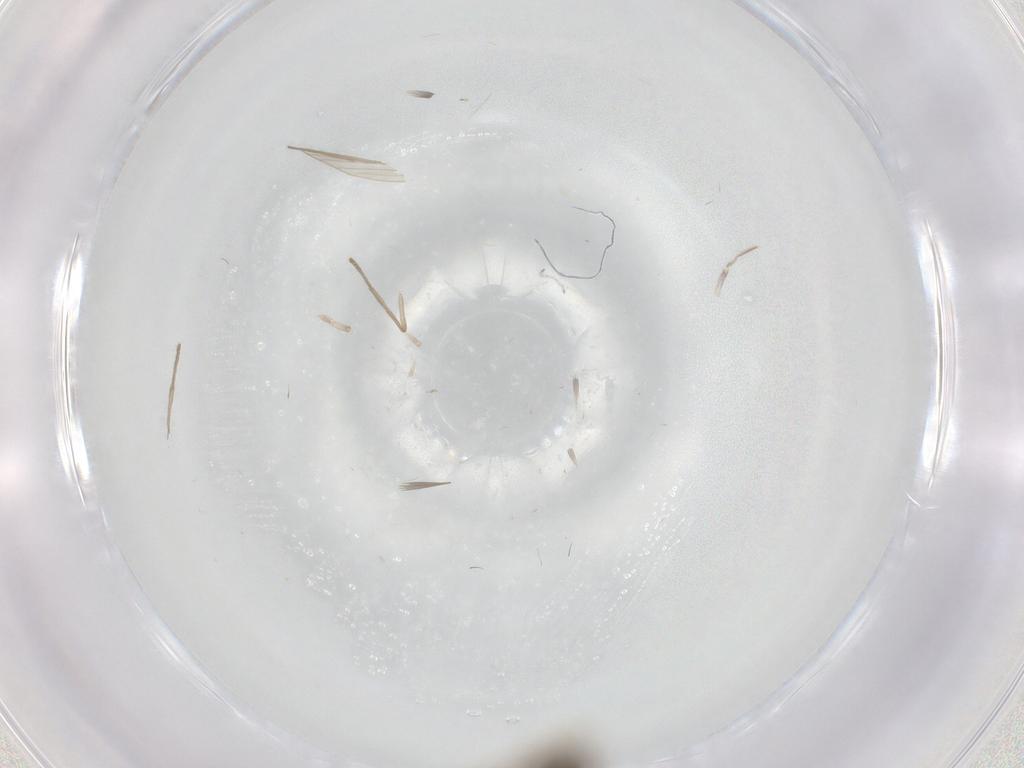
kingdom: Animalia
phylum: Arthropoda
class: Insecta
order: Diptera
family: Psychodidae
